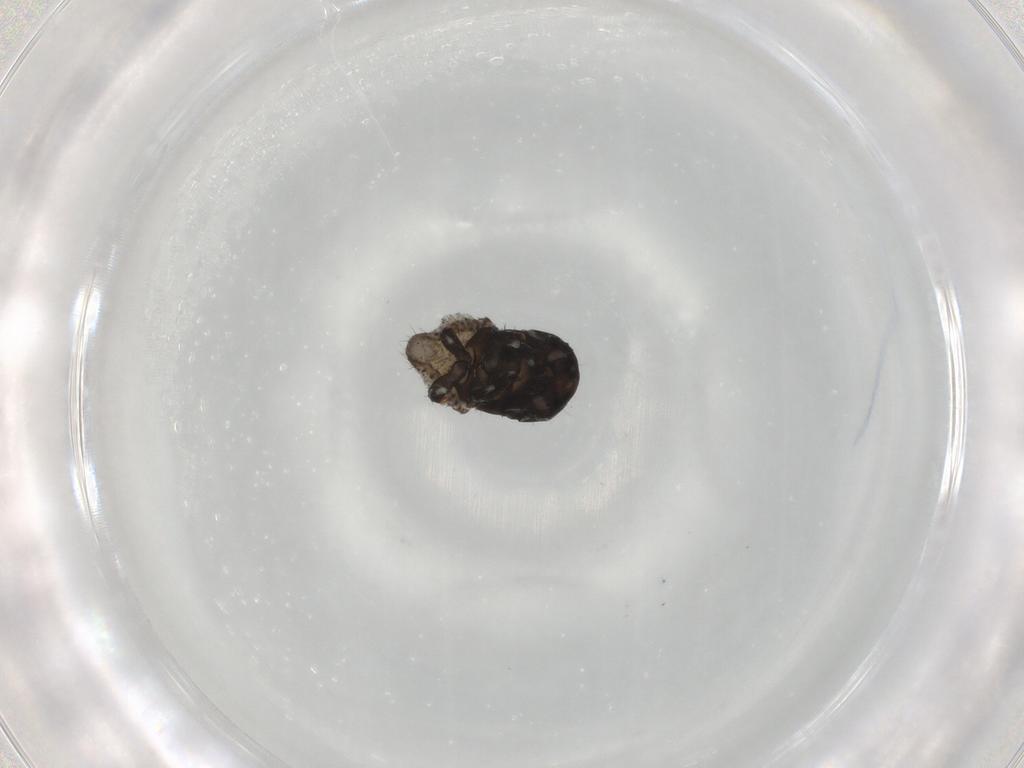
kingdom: Animalia
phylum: Arthropoda
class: Insecta
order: Coleoptera
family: Chrysomelidae
